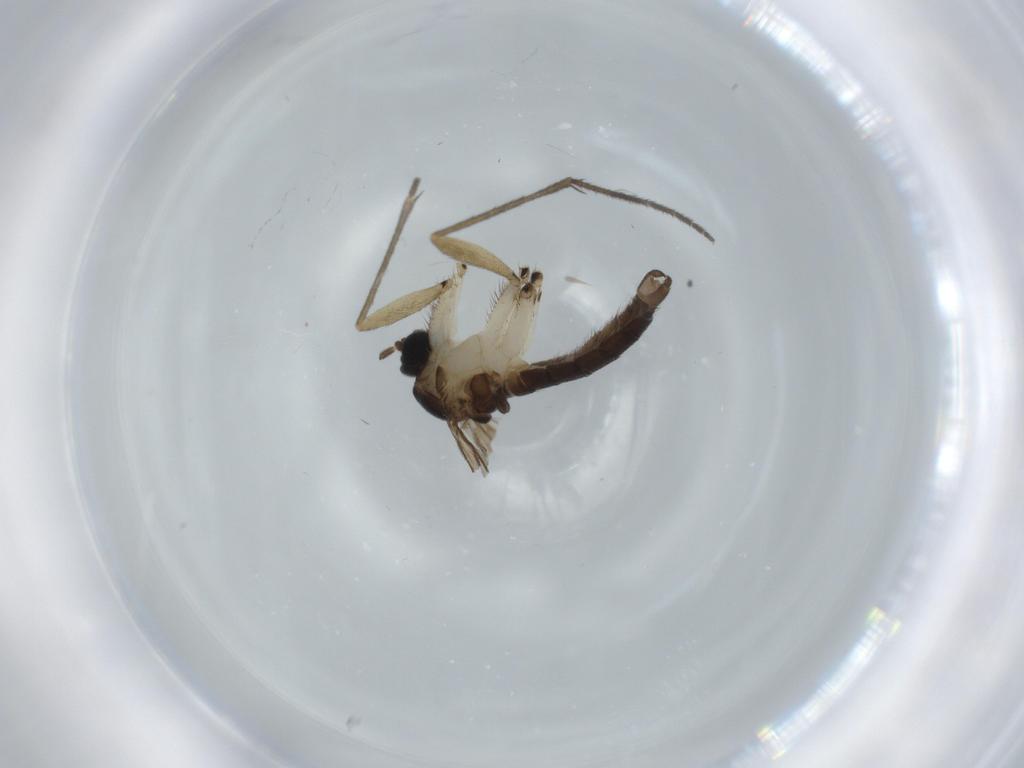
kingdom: Animalia
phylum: Arthropoda
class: Insecta
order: Diptera
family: Sciaridae
